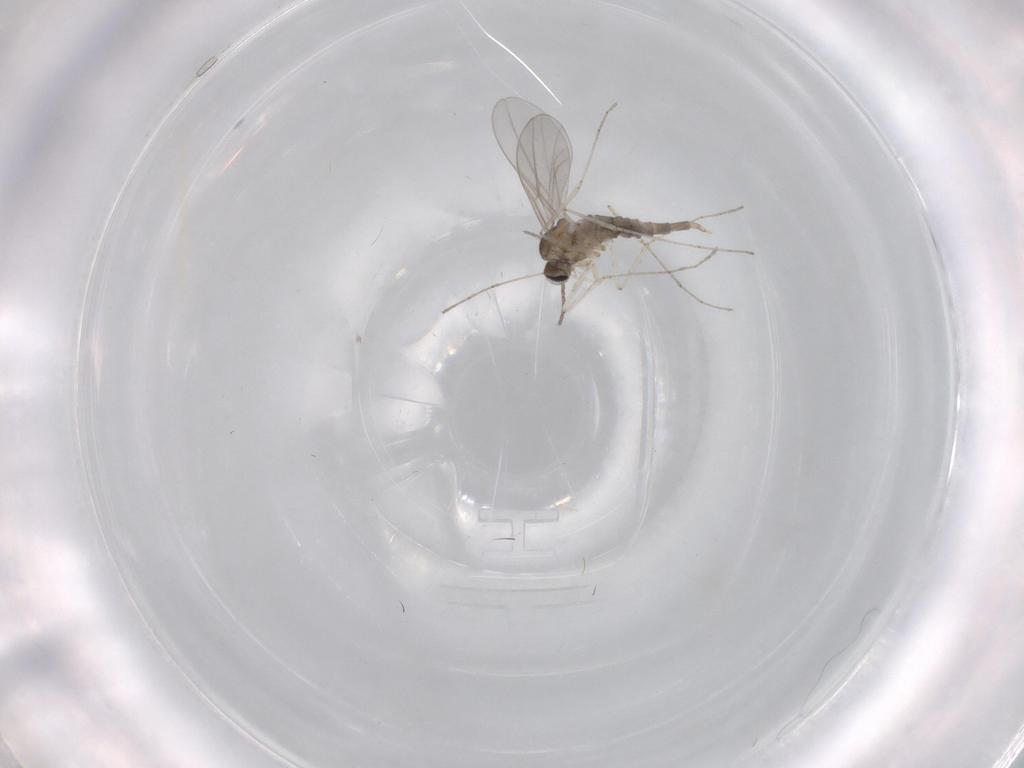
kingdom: Animalia
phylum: Arthropoda
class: Insecta
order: Diptera
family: Cecidomyiidae
